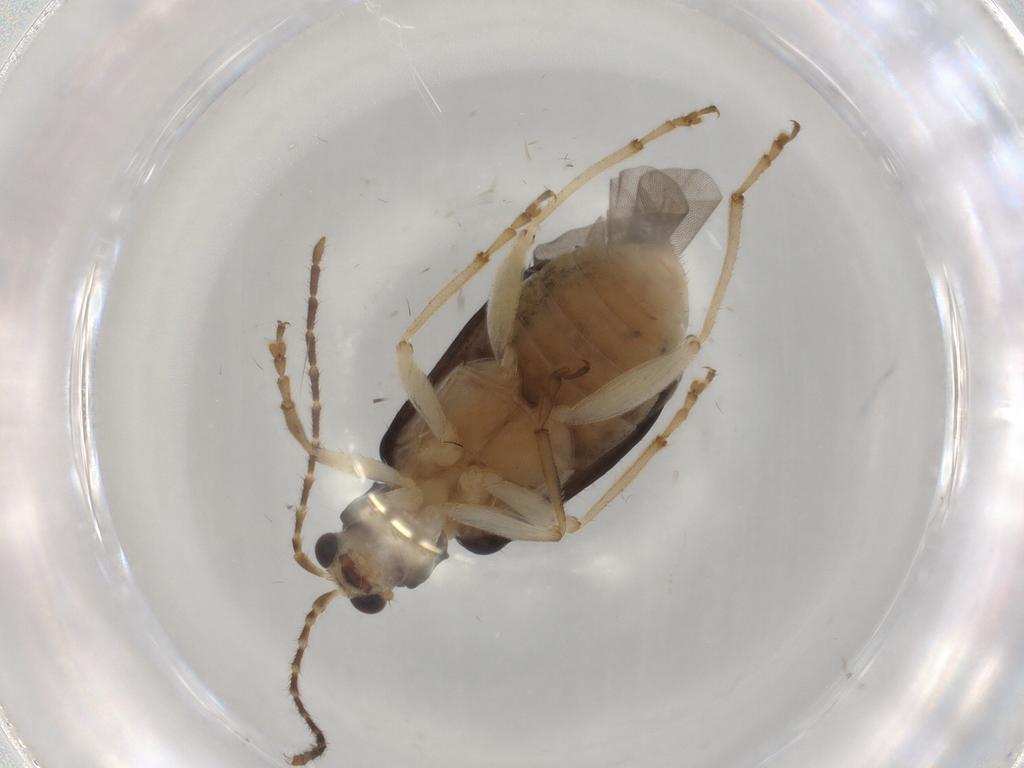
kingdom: Animalia
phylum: Arthropoda
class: Insecta
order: Coleoptera
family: Chrysomelidae
